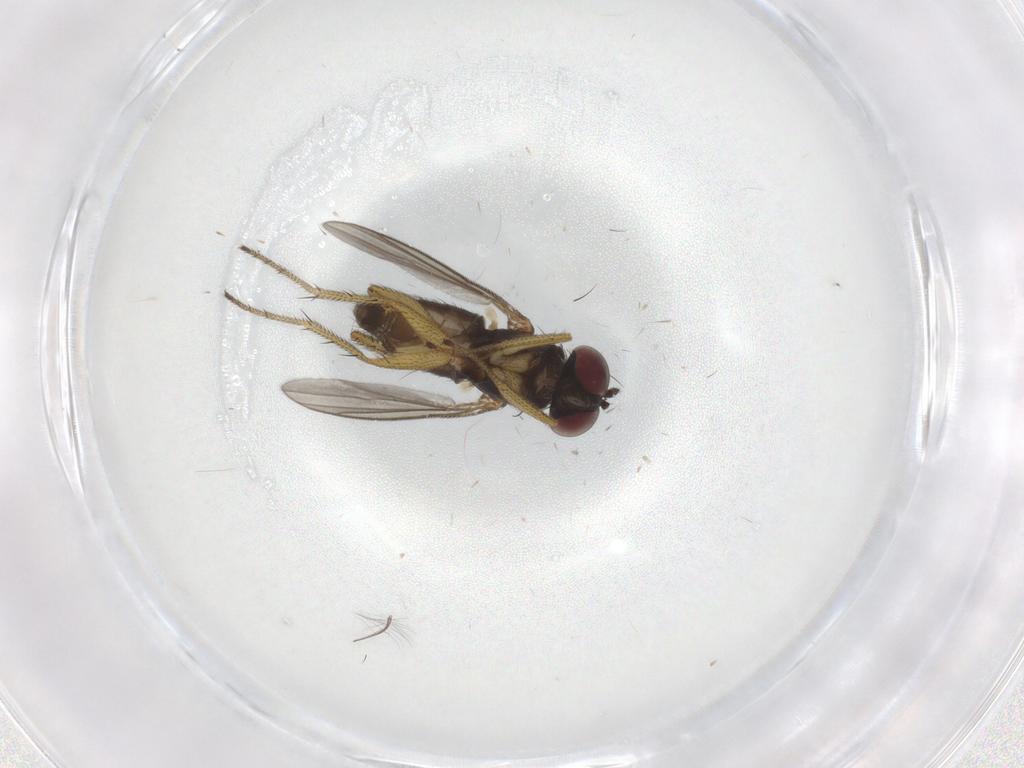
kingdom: Animalia
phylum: Arthropoda
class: Insecta
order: Diptera
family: Chironomidae
